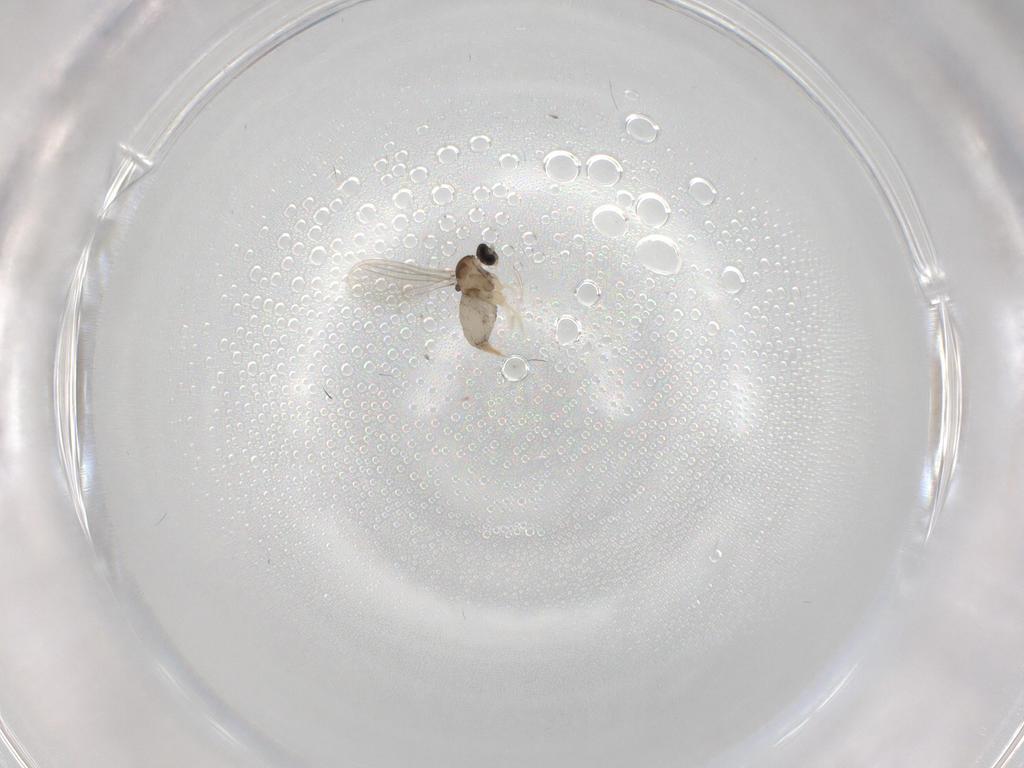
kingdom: Animalia
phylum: Arthropoda
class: Insecta
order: Diptera
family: Cecidomyiidae
